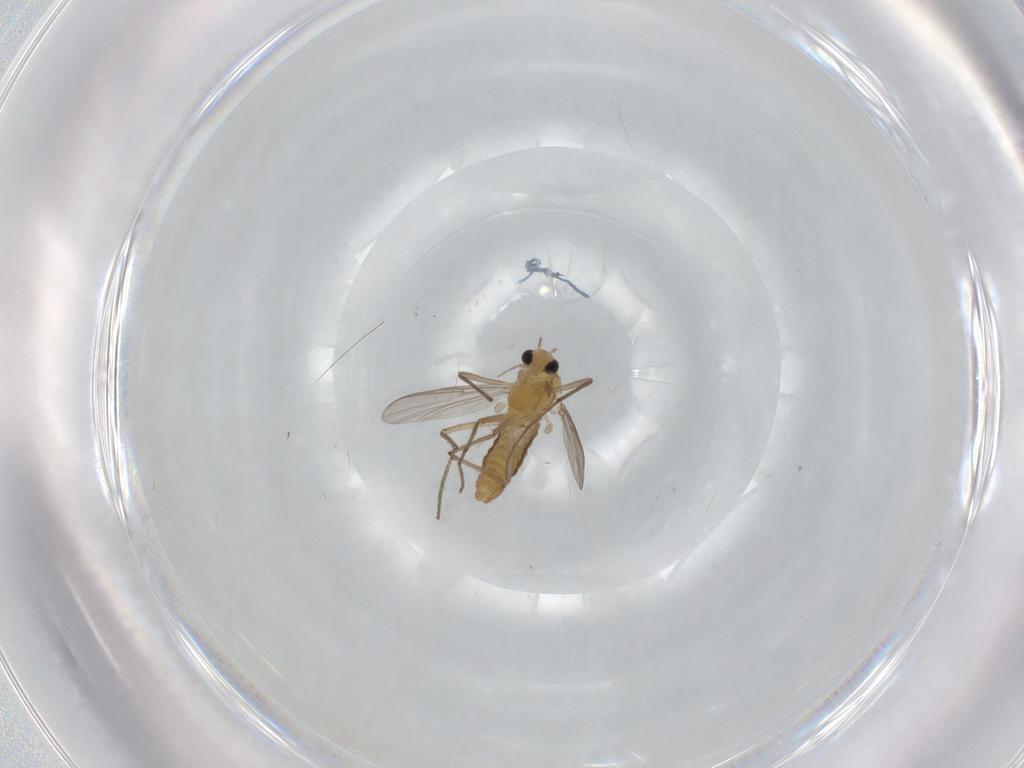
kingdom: Animalia
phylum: Arthropoda
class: Insecta
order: Diptera
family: Chironomidae
